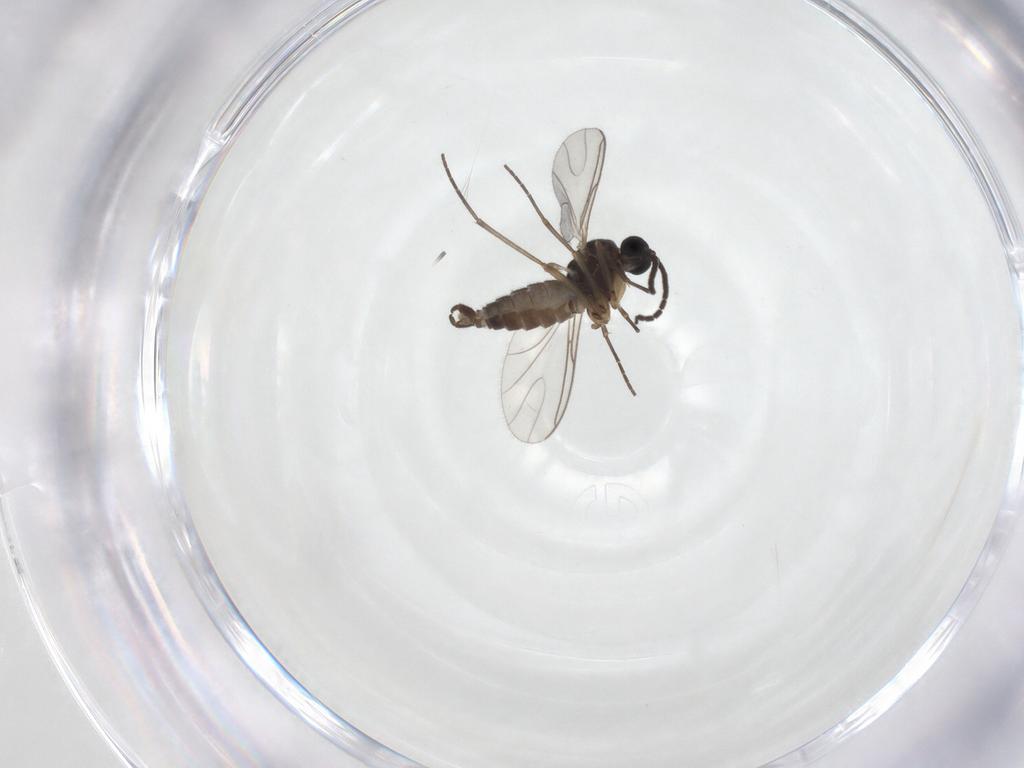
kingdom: Animalia
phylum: Arthropoda
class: Insecta
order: Diptera
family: Sciaridae
